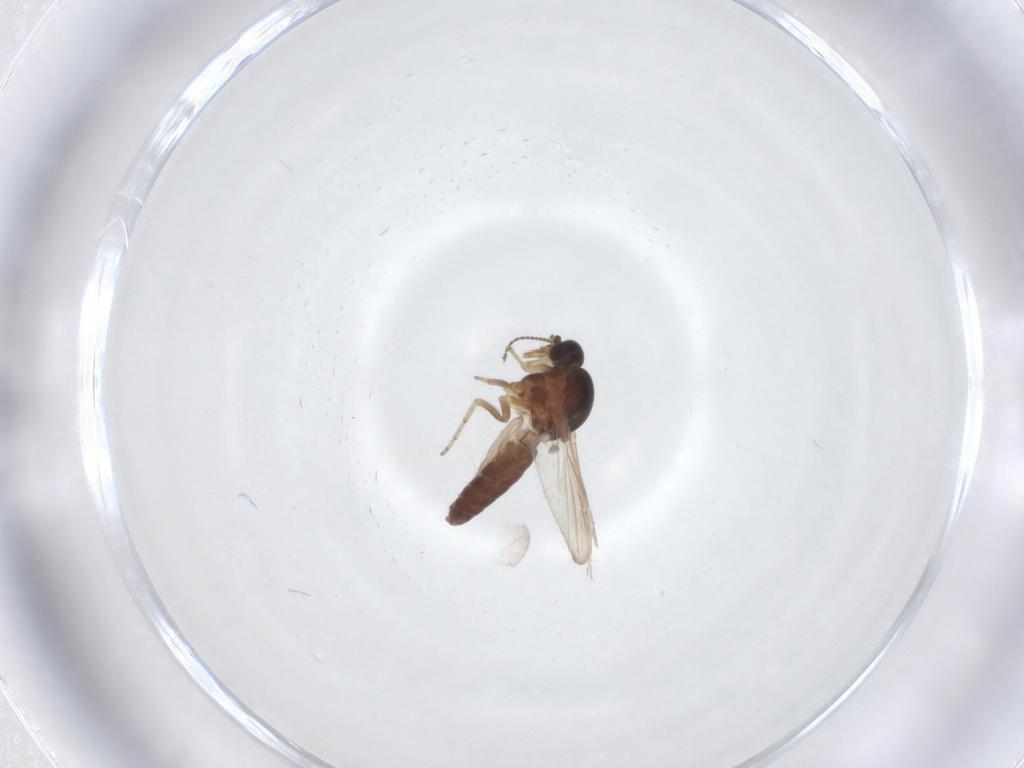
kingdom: Animalia
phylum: Arthropoda
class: Insecta
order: Diptera
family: Ceratopogonidae
